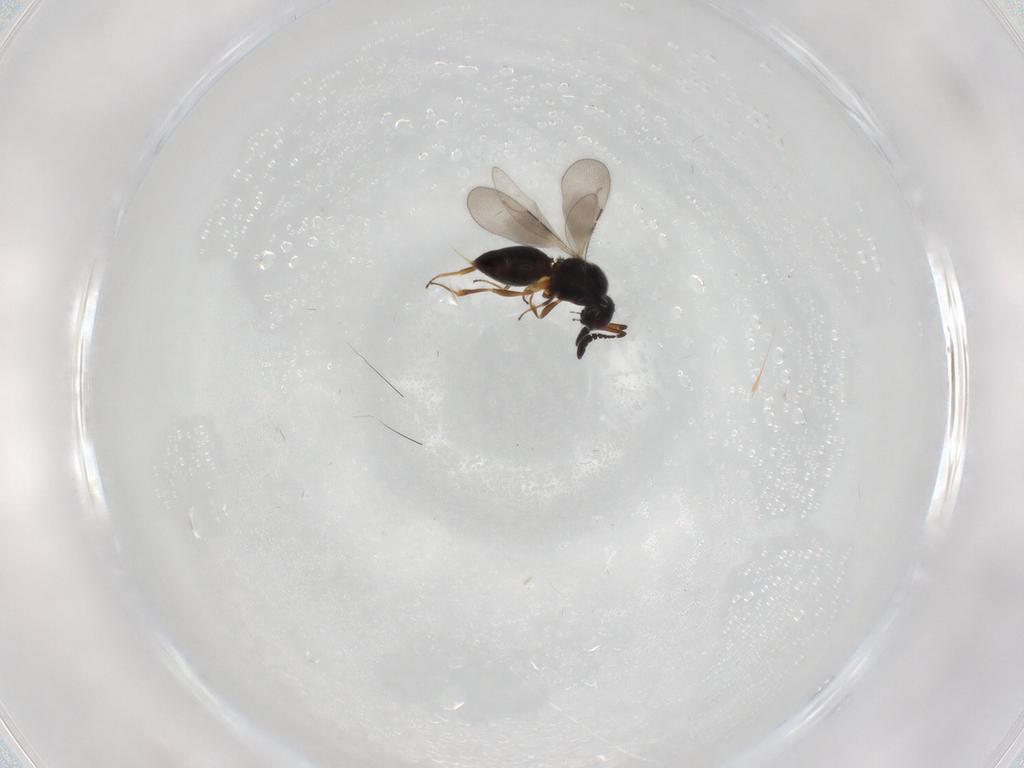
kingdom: Animalia
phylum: Arthropoda
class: Insecta
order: Hymenoptera
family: Ceraphronidae
